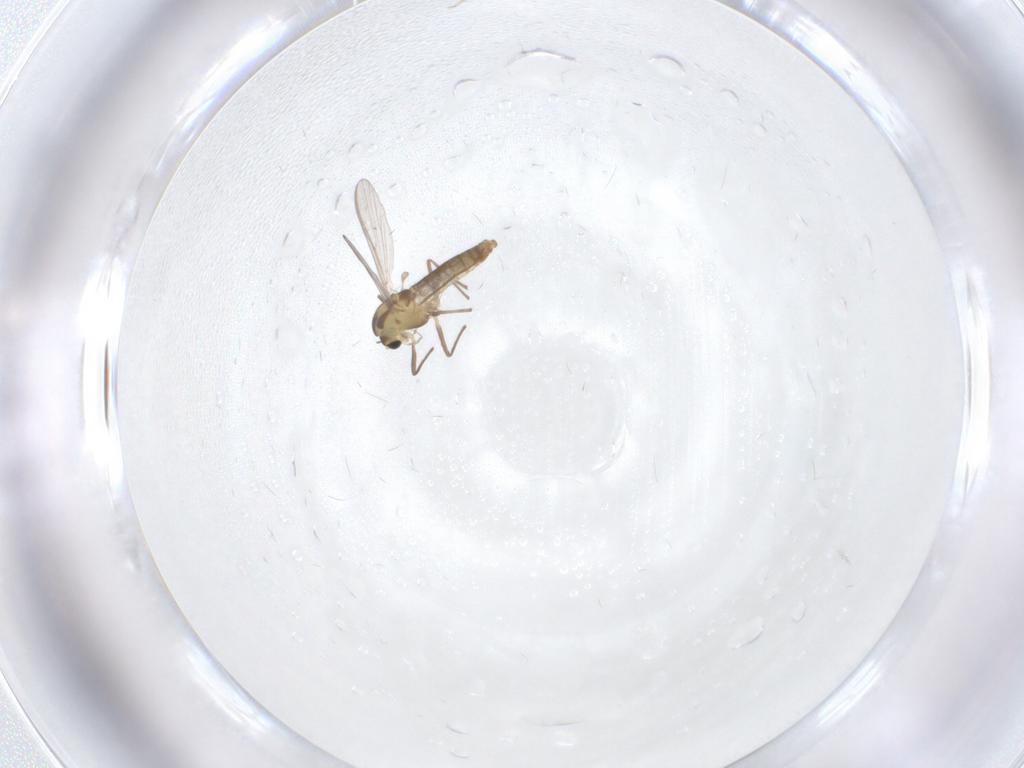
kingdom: Animalia
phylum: Arthropoda
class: Insecta
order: Diptera
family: Chironomidae
